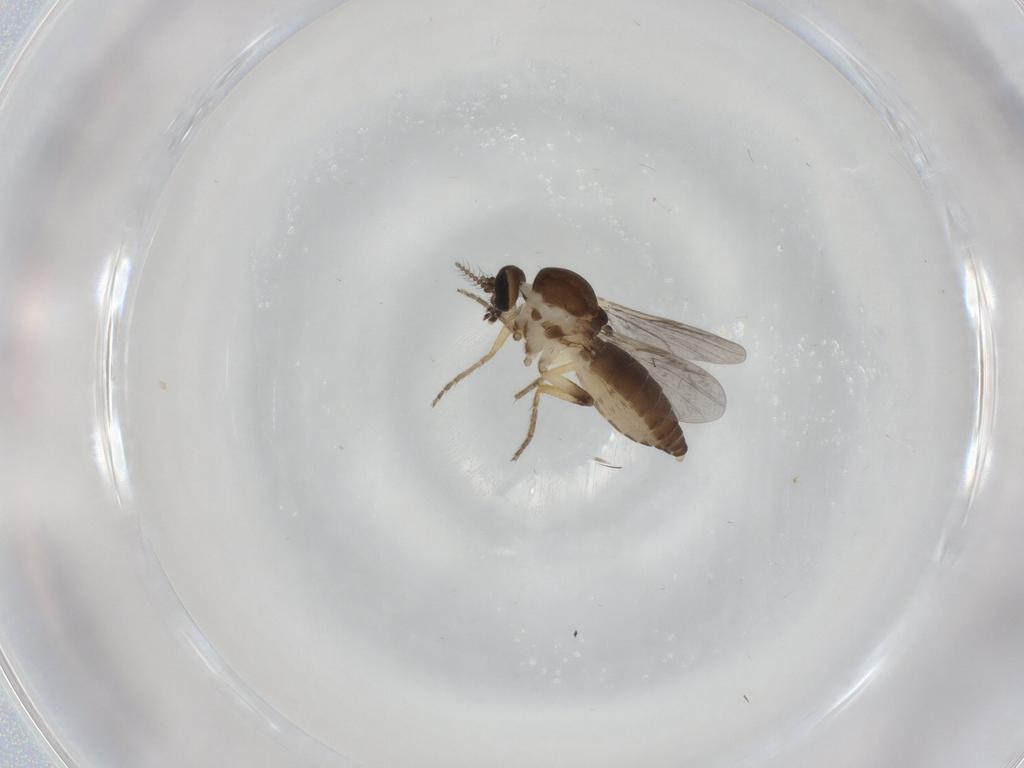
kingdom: Animalia
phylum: Arthropoda
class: Insecta
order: Diptera
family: Ceratopogonidae
